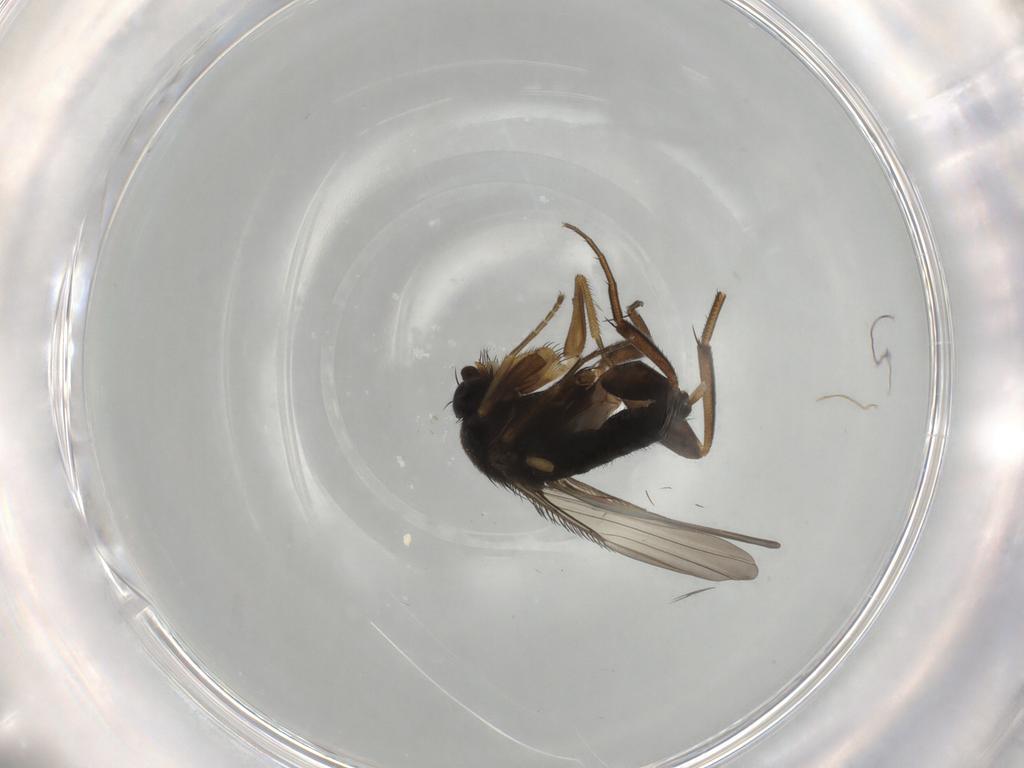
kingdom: Animalia
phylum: Arthropoda
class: Insecta
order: Diptera
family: Phoridae
